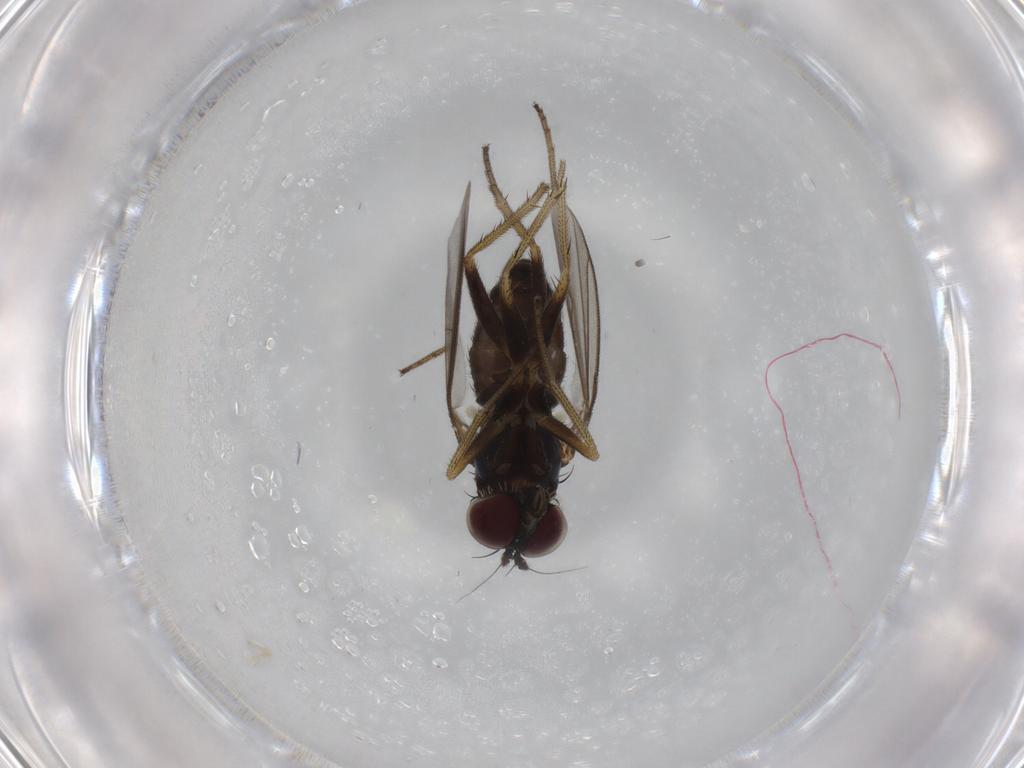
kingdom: Animalia
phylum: Arthropoda
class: Insecta
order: Diptera
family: Dolichopodidae
